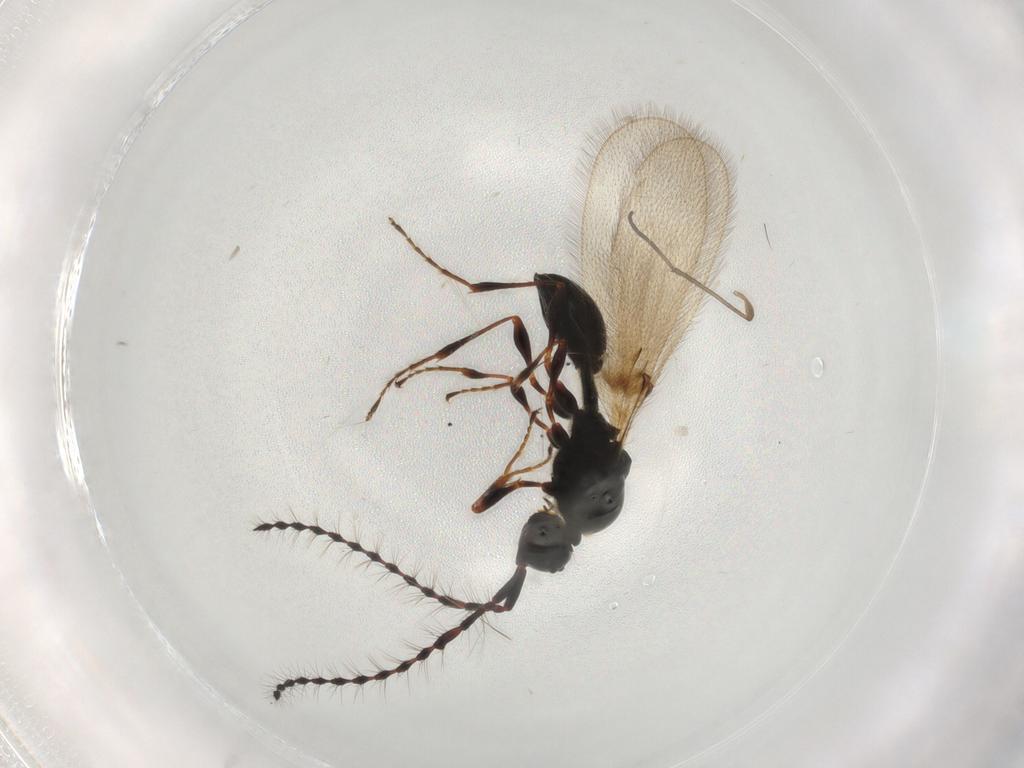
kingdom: Animalia
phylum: Arthropoda
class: Insecta
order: Hymenoptera
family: Diapriidae
